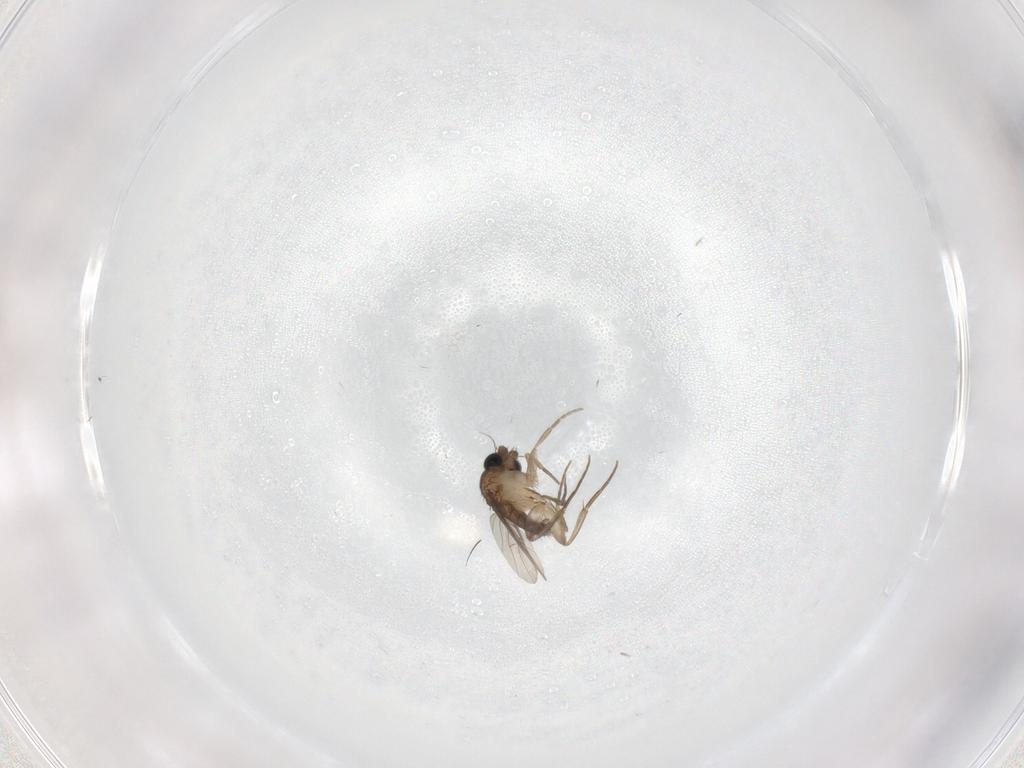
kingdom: Animalia
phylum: Arthropoda
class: Insecta
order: Diptera
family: Phoridae
